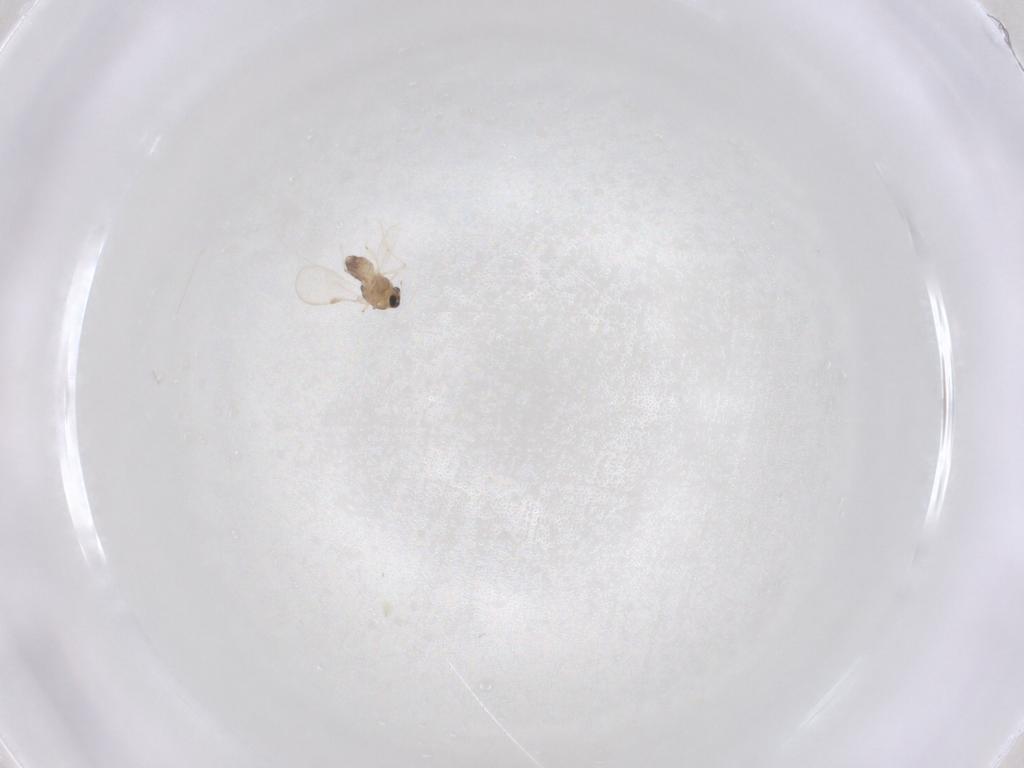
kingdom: Animalia
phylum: Arthropoda
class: Insecta
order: Diptera
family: Chironomidae
